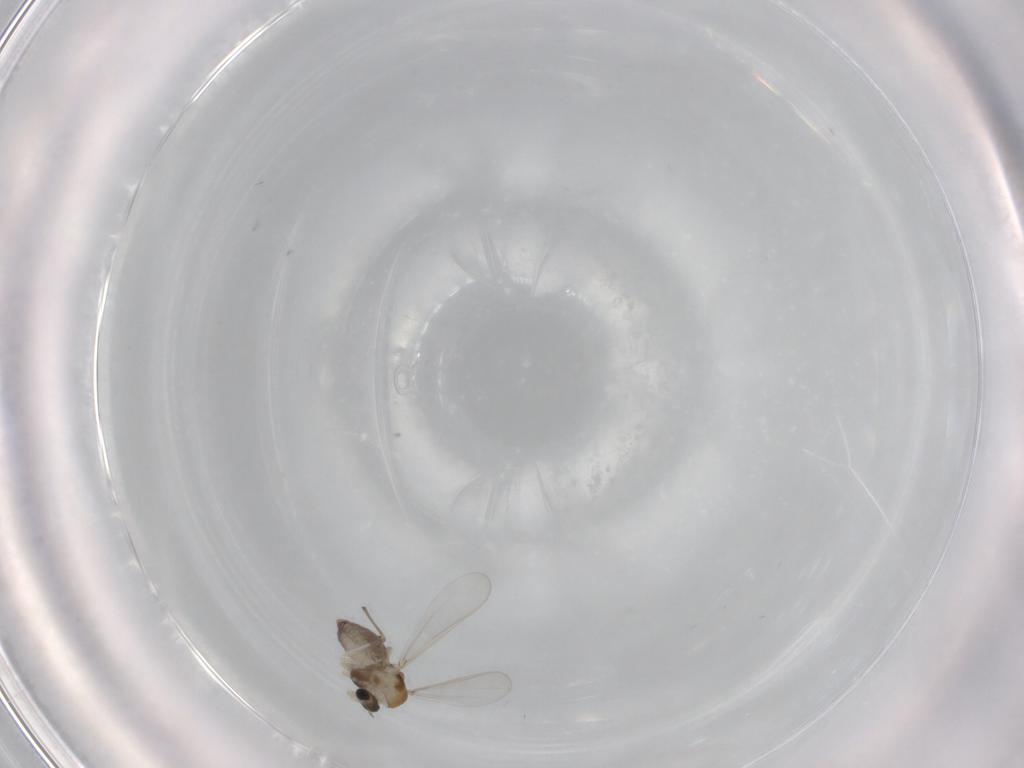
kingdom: Animalia
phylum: Arthropoda
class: Insecta
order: Diptera
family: Chironomidae
